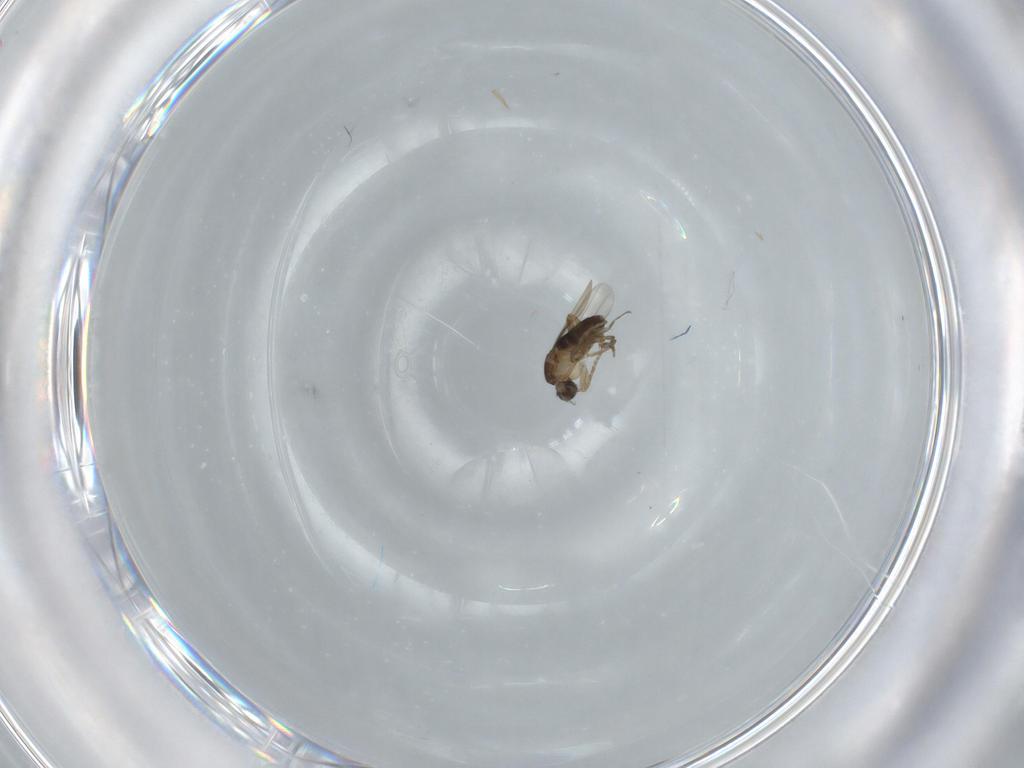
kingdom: Animalia
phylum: Arthropoda
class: Insecta
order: Diptera
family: Phoridae
